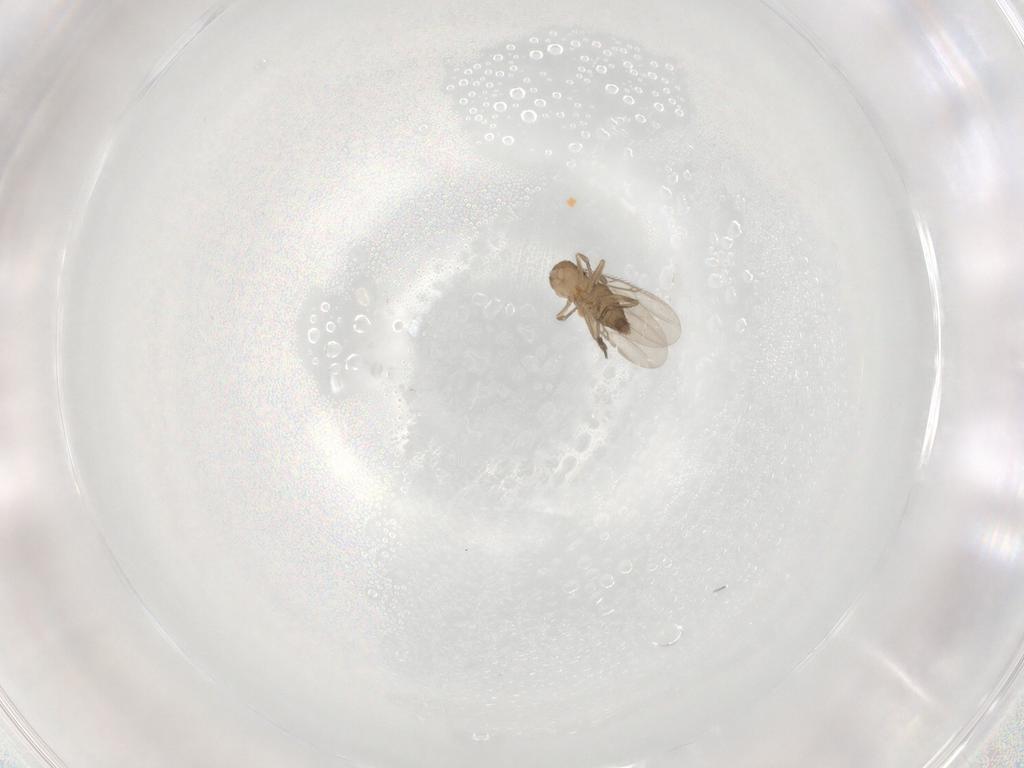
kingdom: Animalia
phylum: Arthropoda
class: Insecta
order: Diptera
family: Phoridae
